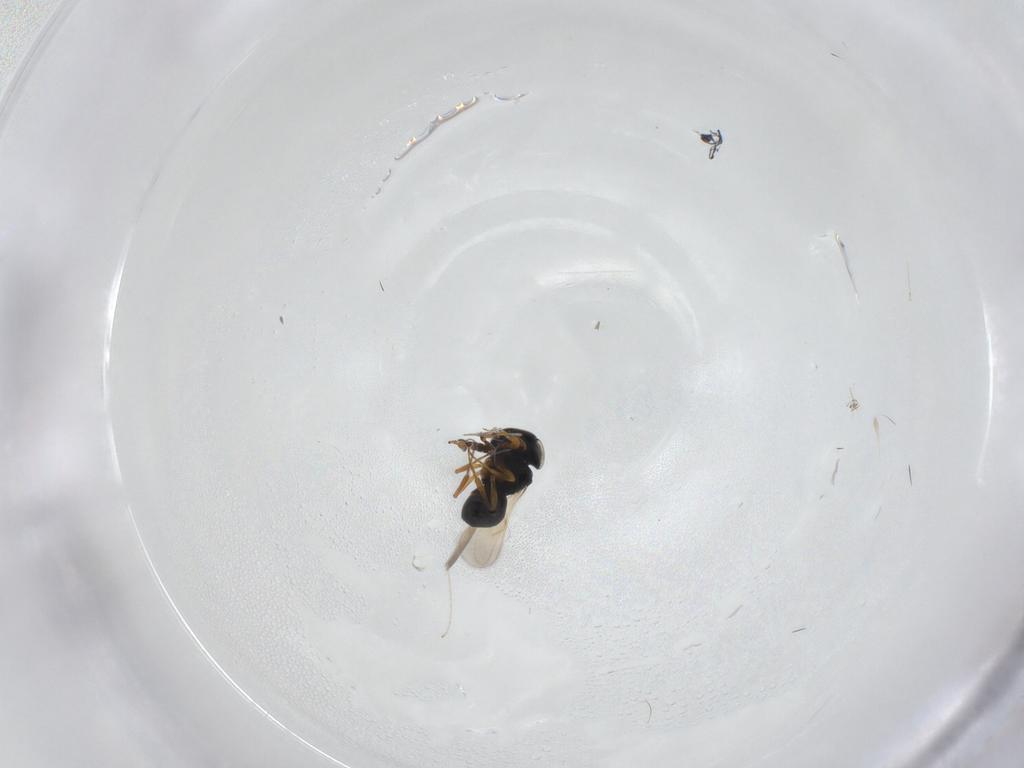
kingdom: Animalia
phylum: Arthropoda
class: Insecta
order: Hymenoptera
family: Scelionidae
